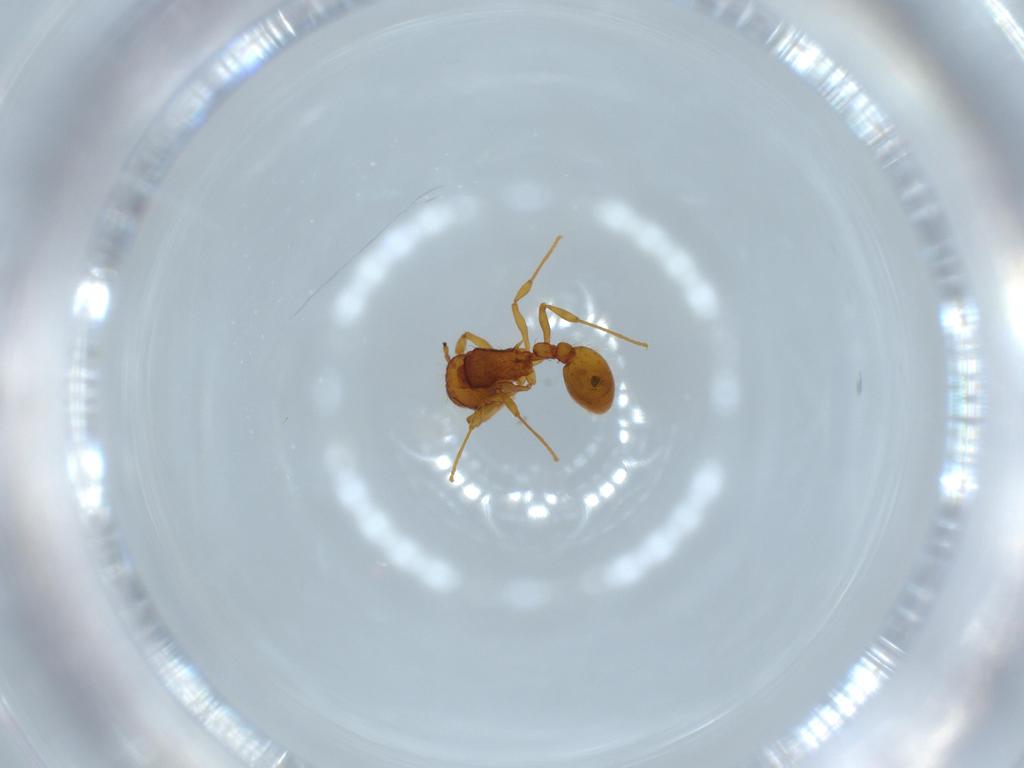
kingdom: Animalia
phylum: Arthropoda
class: Insecta
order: Hymenoptera
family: Formicidae
